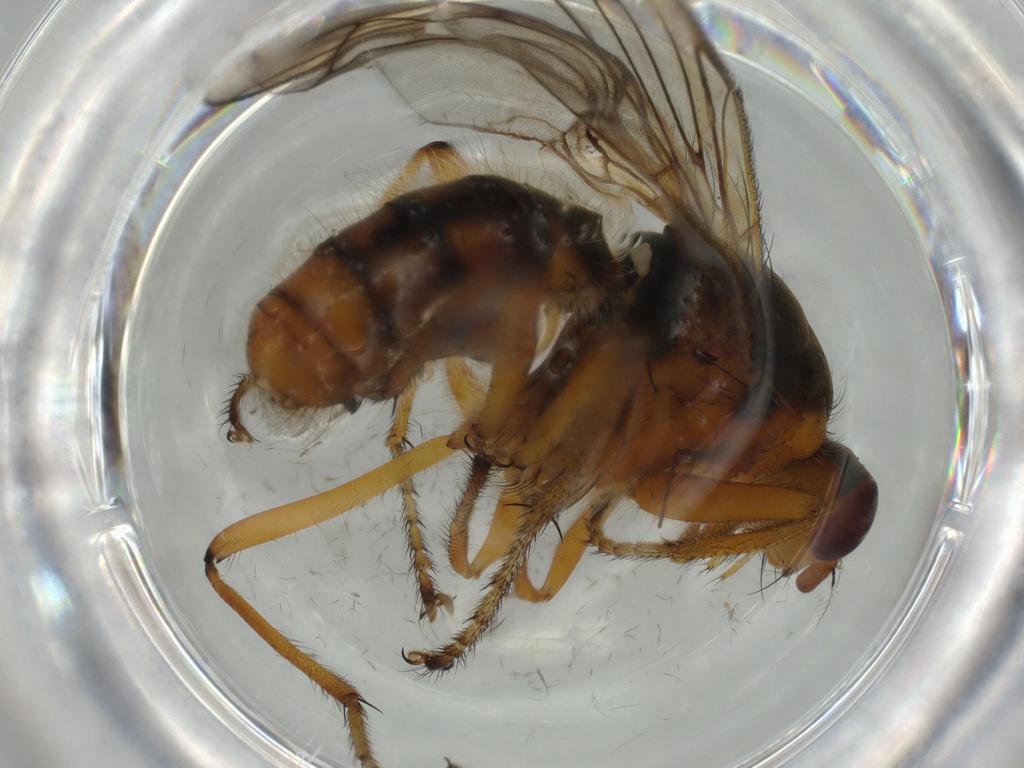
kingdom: Animalia
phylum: Arthropoda
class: Insecta
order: Diptera
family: Scathophagidae
